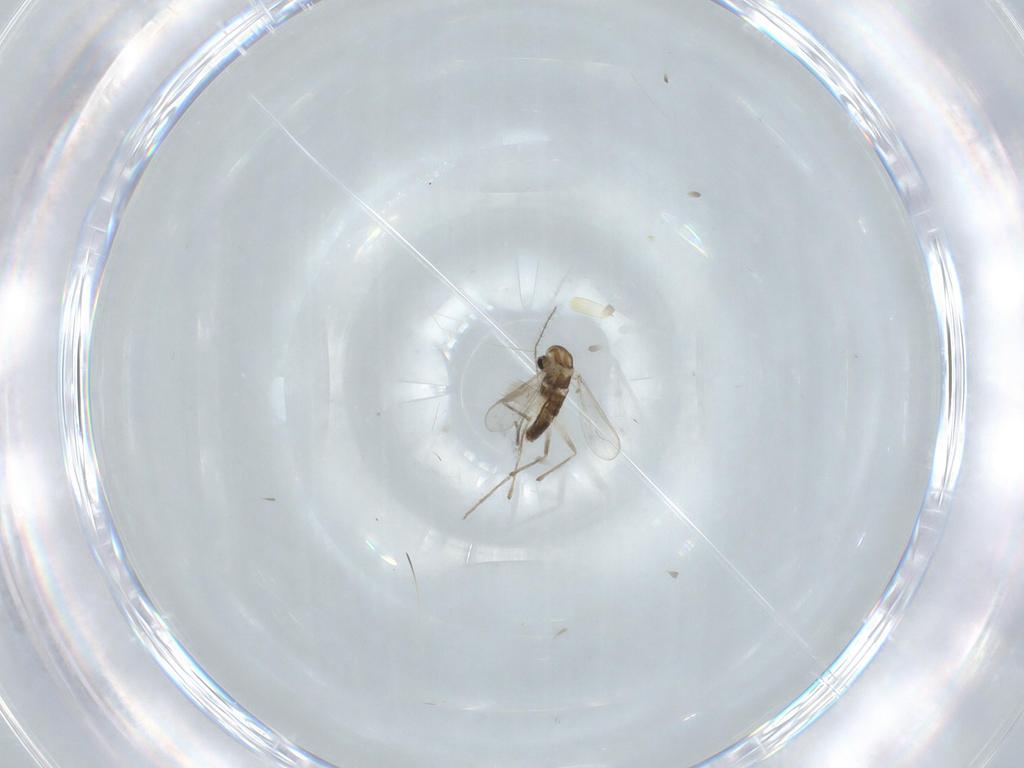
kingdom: Animalia
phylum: Arthropoda
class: Insecta
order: Diptera
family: Chironomidae
